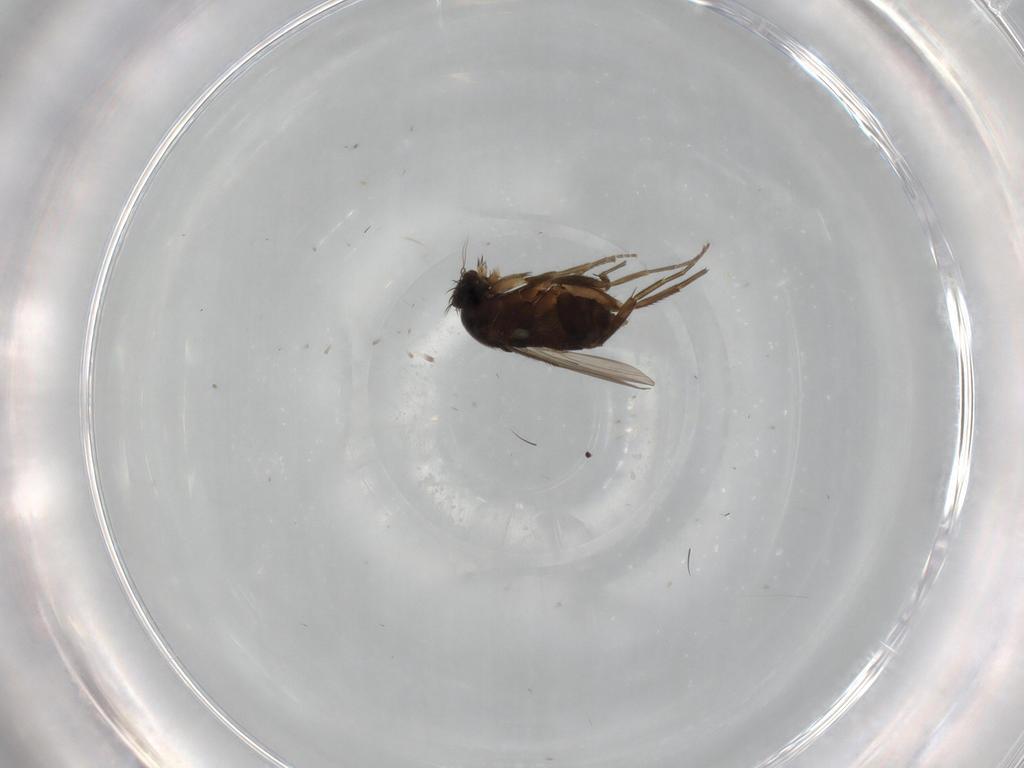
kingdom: Animalia
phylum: Arthropoda
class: Insecta
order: Diptera
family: Phoridae
